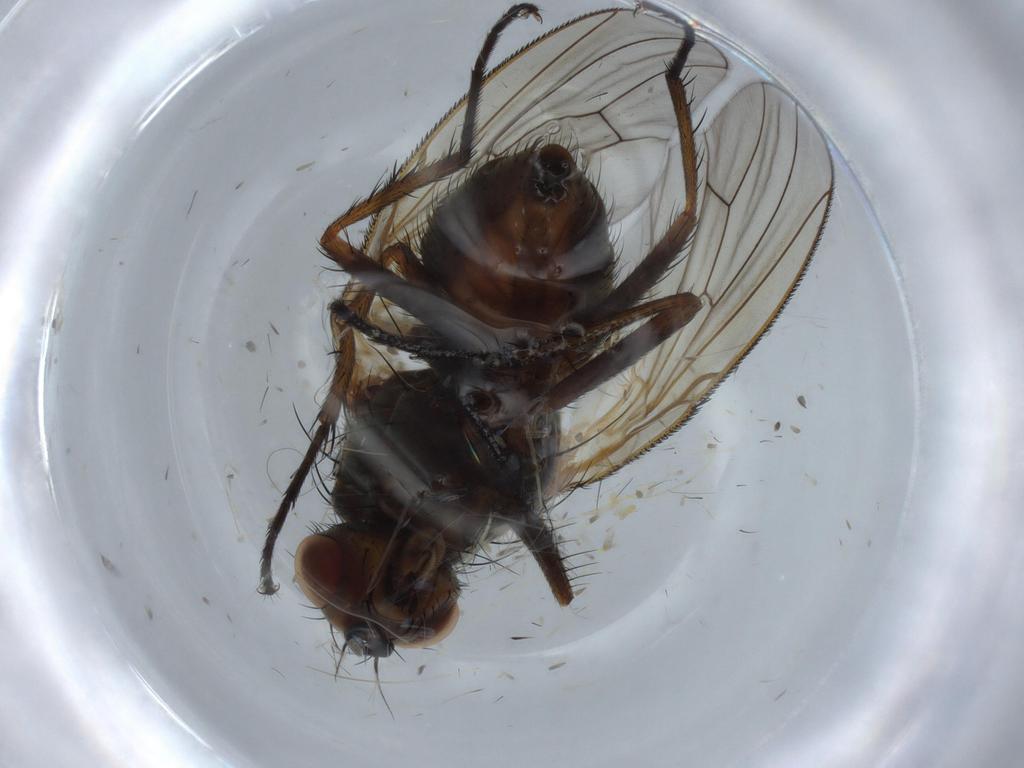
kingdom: Animalia
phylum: Arthropoda
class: Insecta
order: Diptera
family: Anthomyiidae
